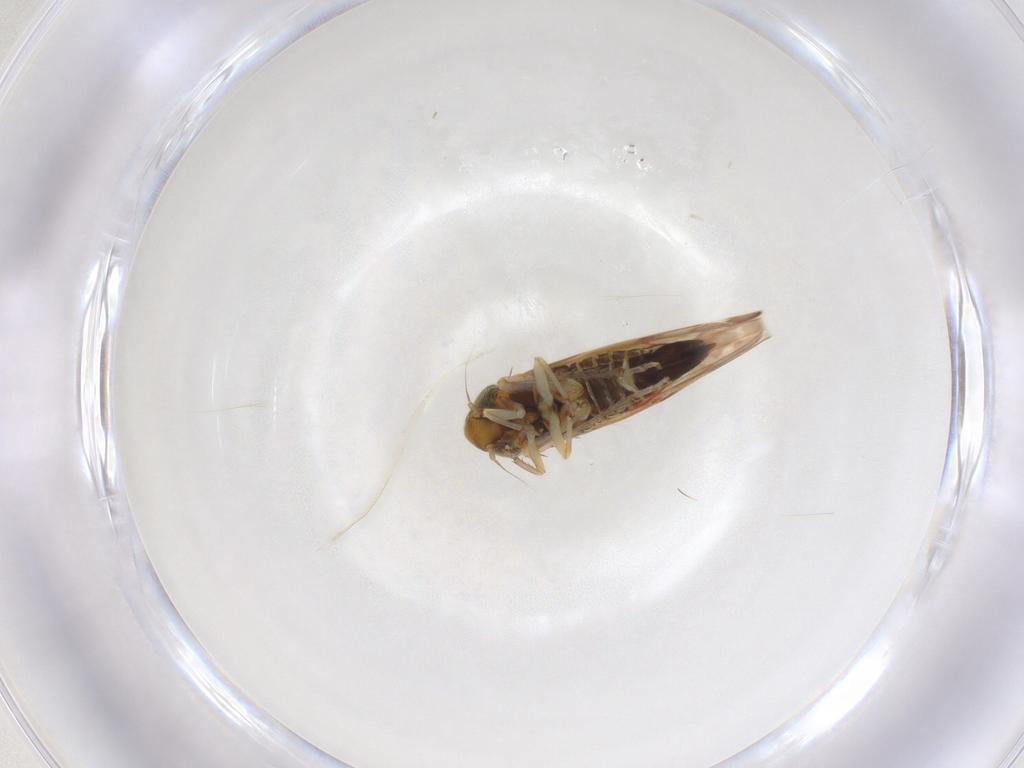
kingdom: Animalia
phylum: Arthropoda
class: Insecta
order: Hemiptera
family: Cicadellidae
